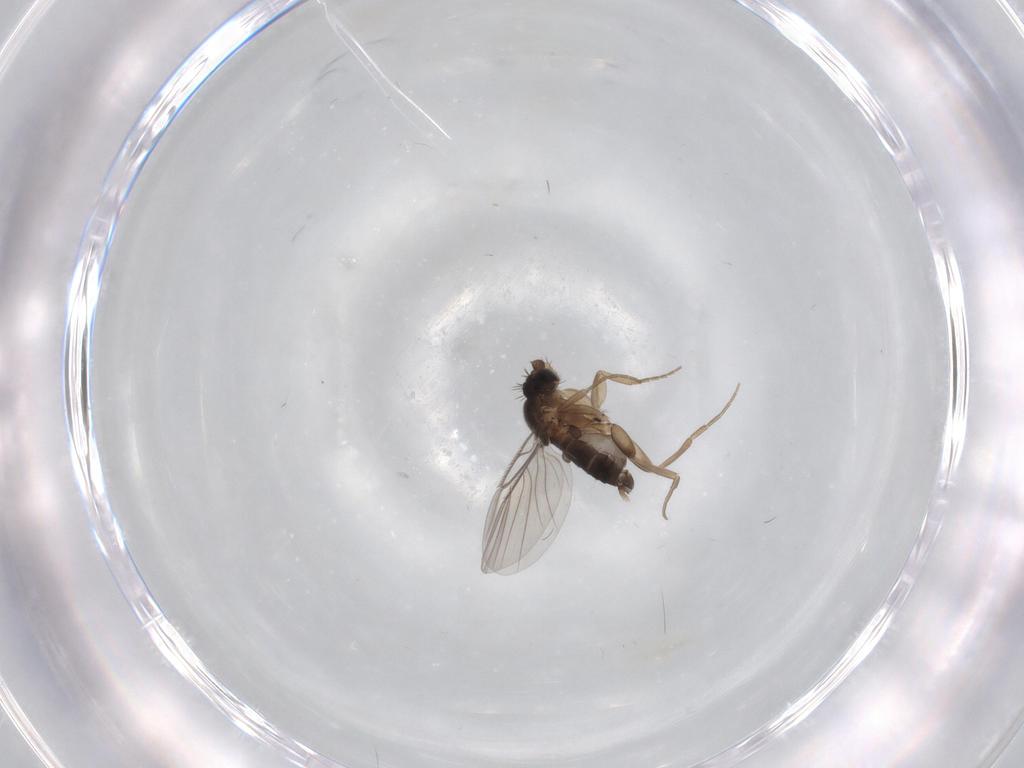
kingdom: Animalia
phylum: Arthropoda
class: Insecta
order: Diptera
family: Phoridae
